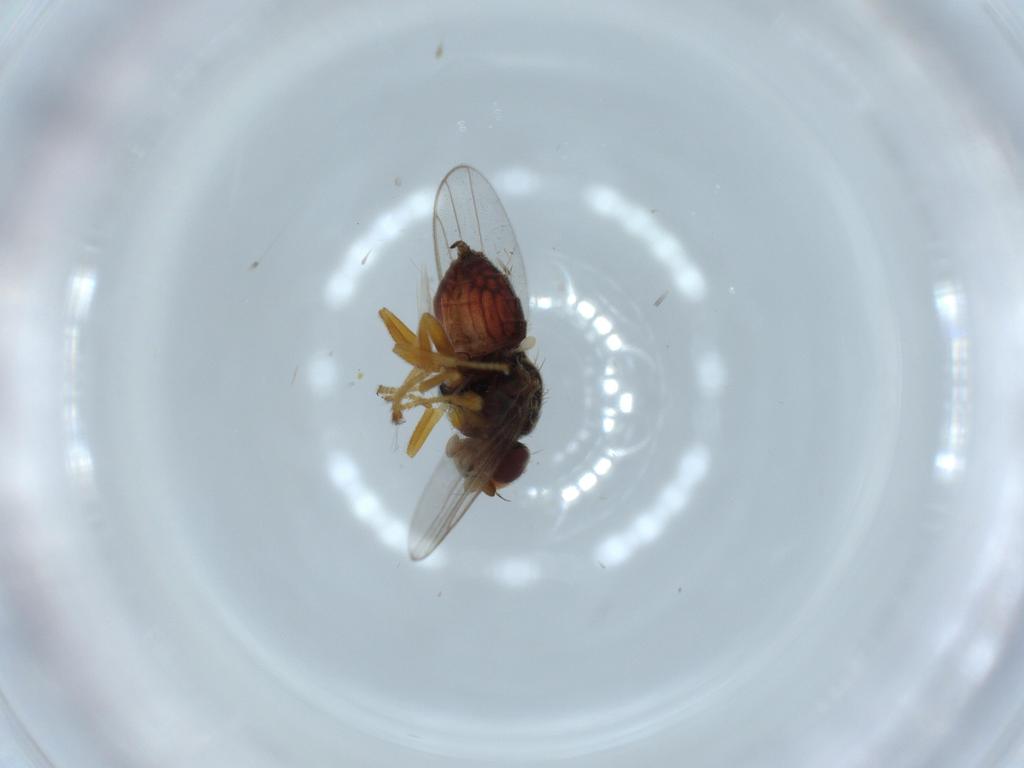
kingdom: Animalia
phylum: Arthropoda
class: Insecta
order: Diptera
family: Chloropidae
